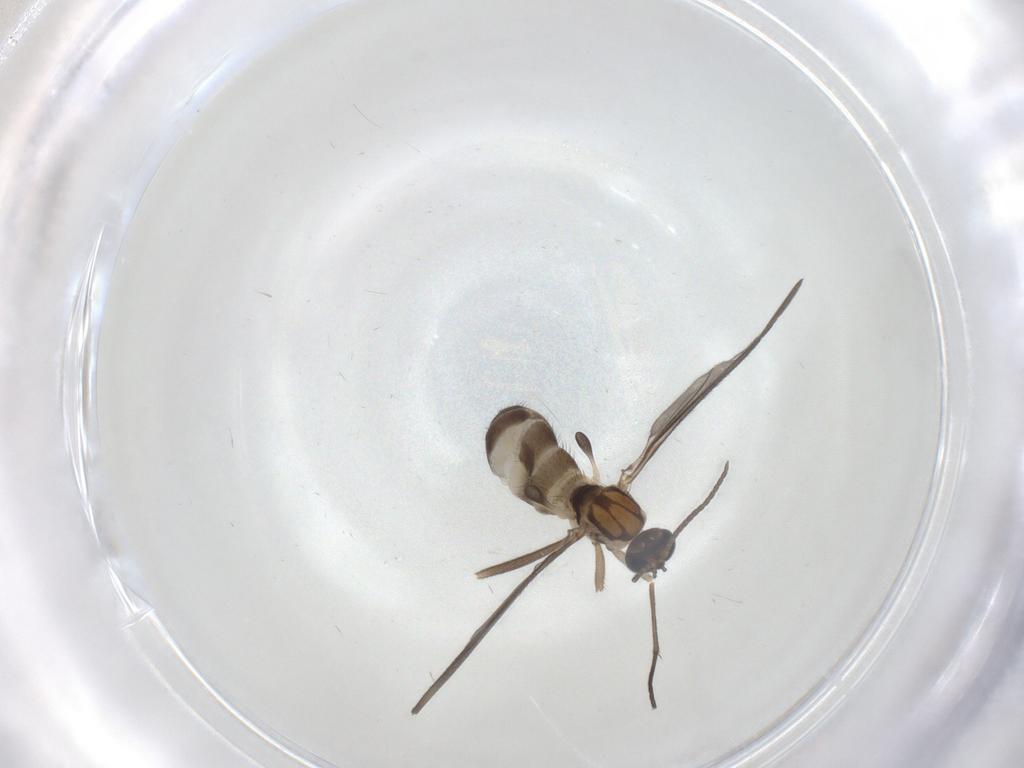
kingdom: Animalia
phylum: Arthropoda
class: Insecta
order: Diptera
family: Sciaridae
